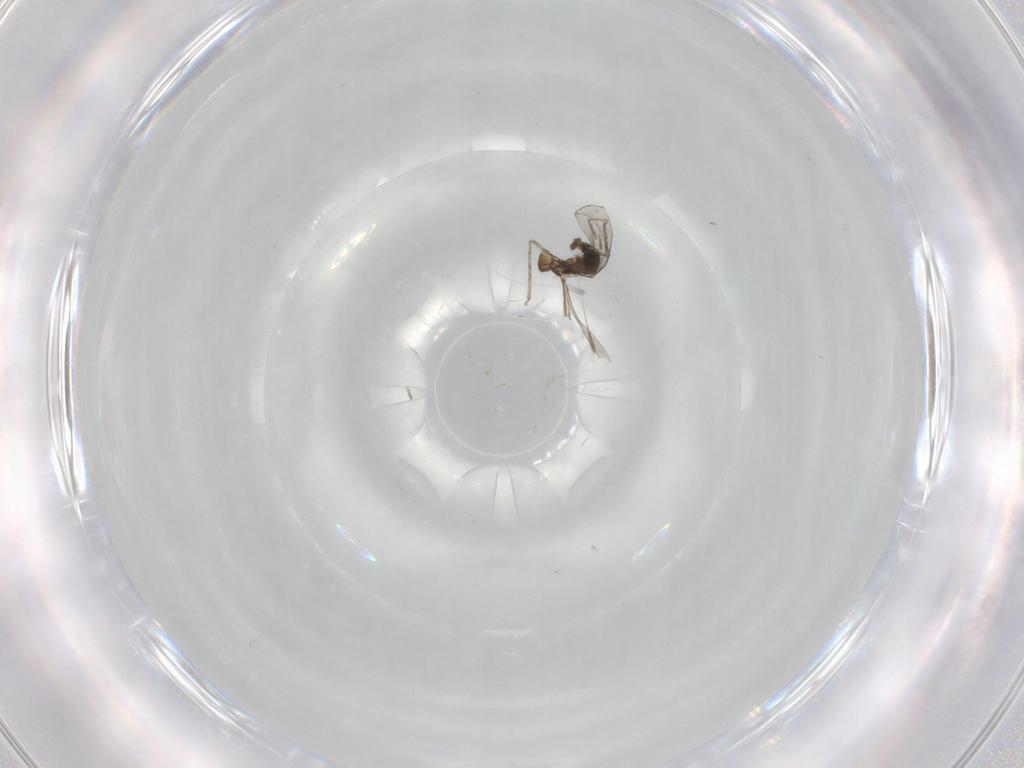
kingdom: Animalia
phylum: Arthropoda
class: Insecta
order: Diptera
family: Cecidomyiidae
